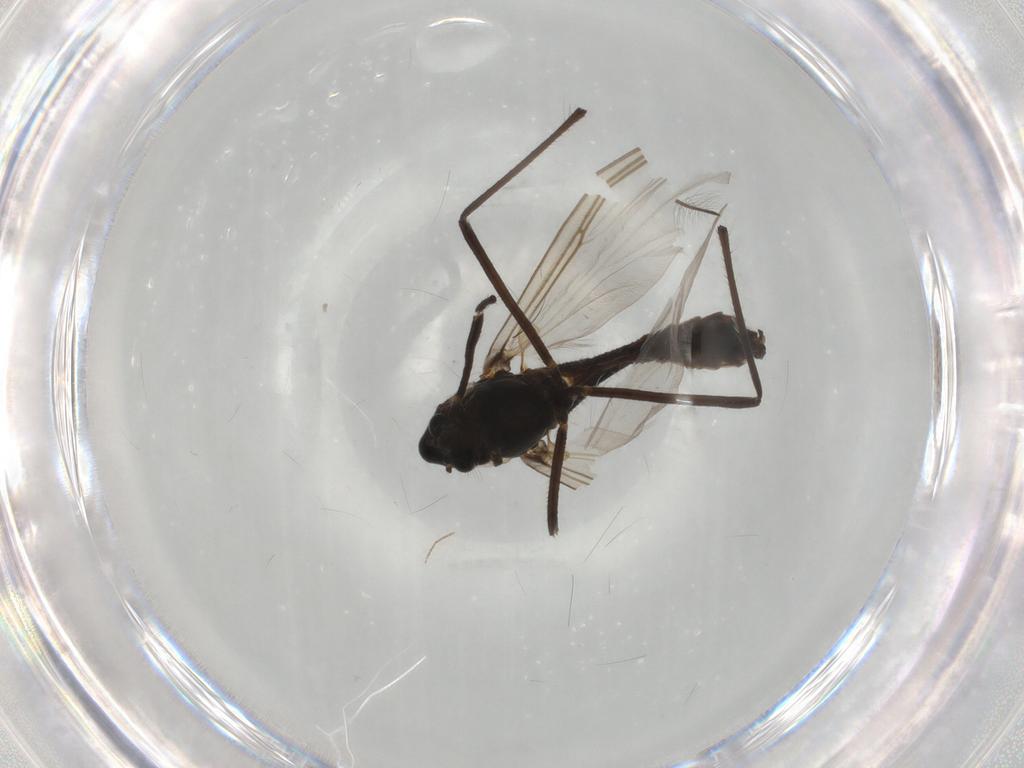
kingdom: Animalia
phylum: Arthropoda
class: Insecta
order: Diptera
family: Chironomidae
